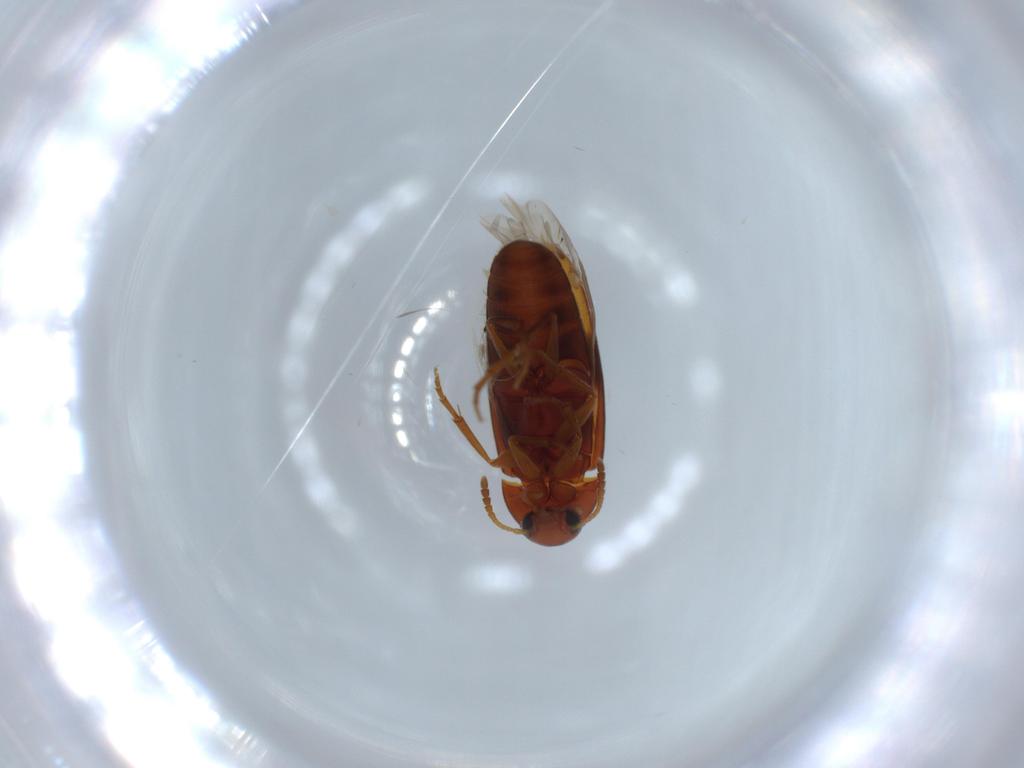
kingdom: Animalia
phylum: Arthropoda
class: Insecta
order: Coleoptera
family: Scraptiidae
